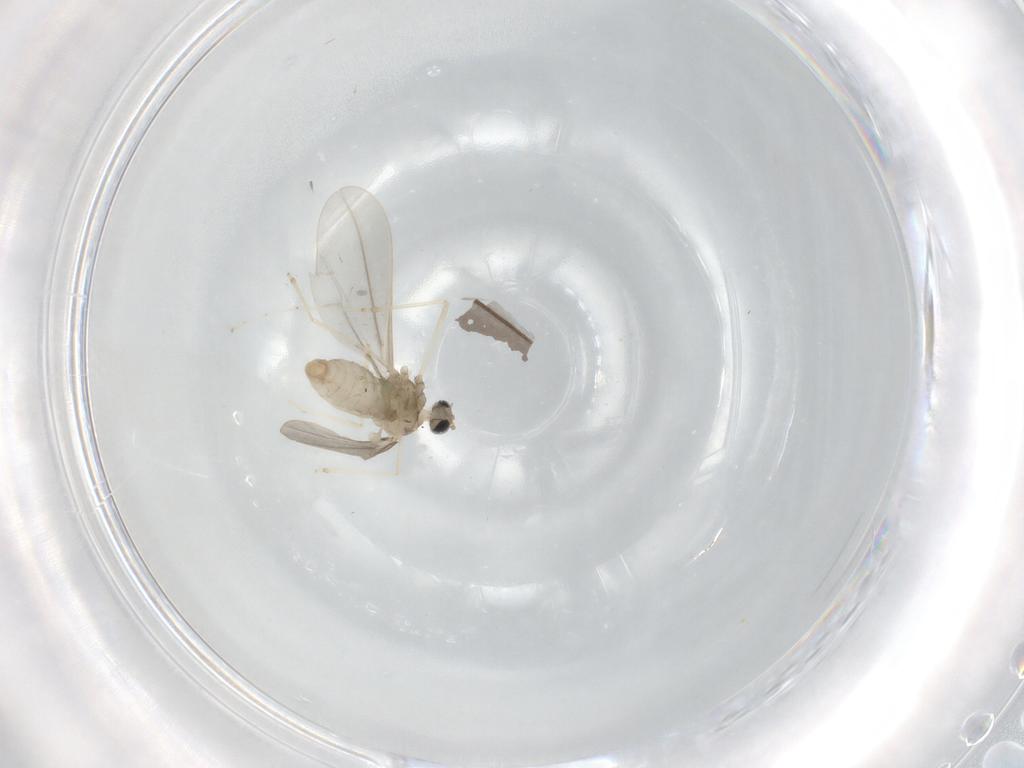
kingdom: Animalia
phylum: Arthropoda
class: Insecta
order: Diptera
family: Cecidomyiidae
